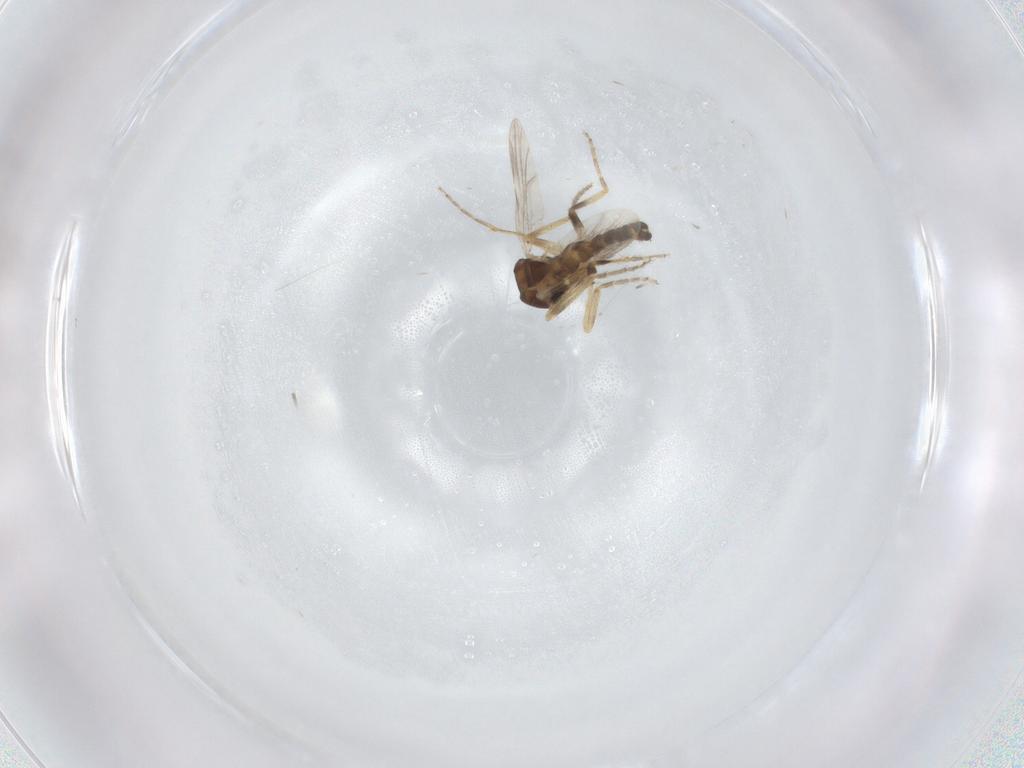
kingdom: Animalia
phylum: Arthropoda
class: Insecta
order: Diptera
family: Ceratopogonidae
